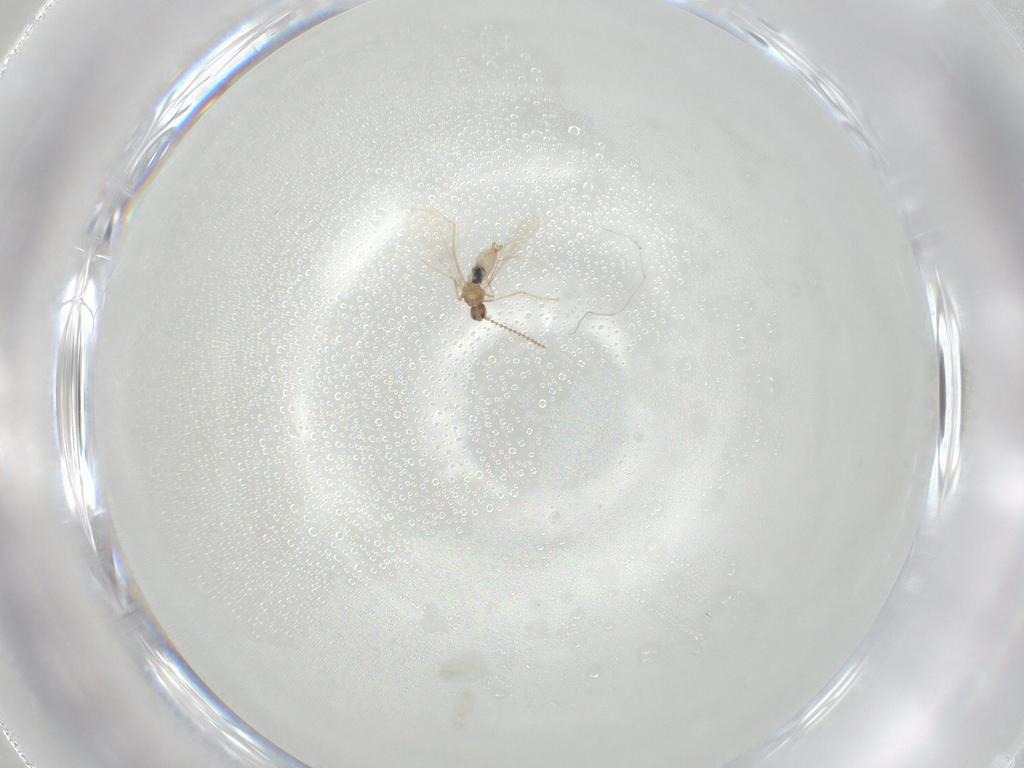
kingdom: Animalia
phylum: Arthropoda
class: Insecta
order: Diptera
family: Cecidomyiidae
